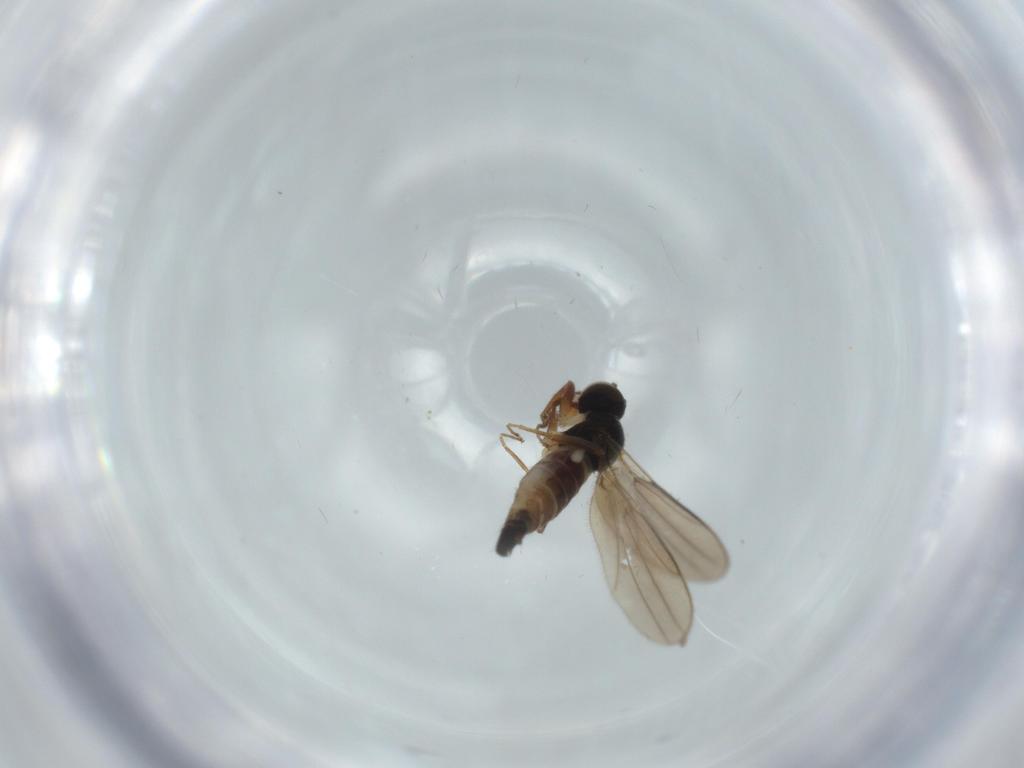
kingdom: Animalia
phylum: Arthropoda
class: Insecta
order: Diptera
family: Hybotidae
